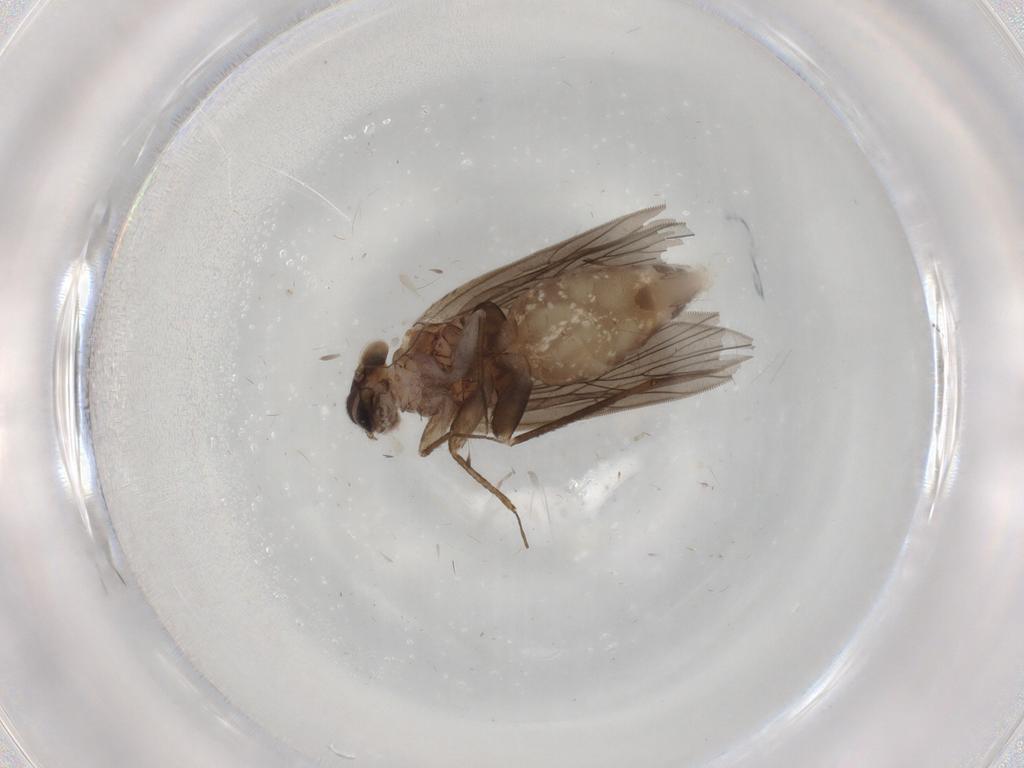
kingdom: Animalia
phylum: Arthropoda
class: Insecta
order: Psocodea
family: Lepidopsocidae
